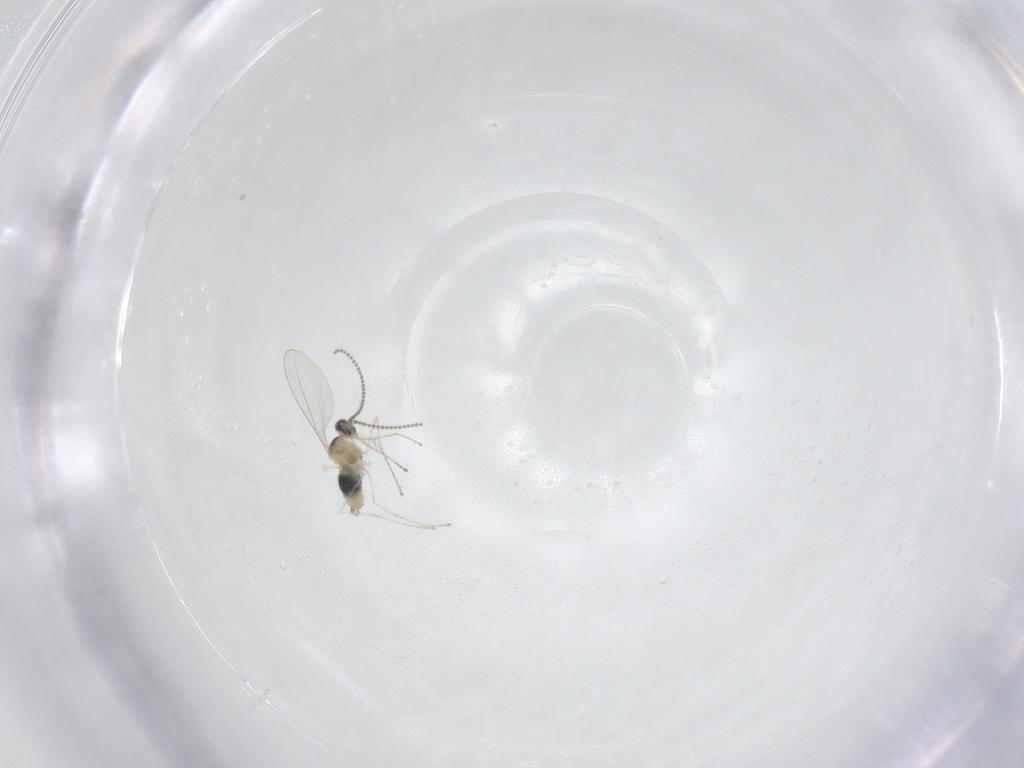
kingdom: Animalia
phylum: Arthropoda
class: Insecta
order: Diptera
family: Cecidomyiidae
